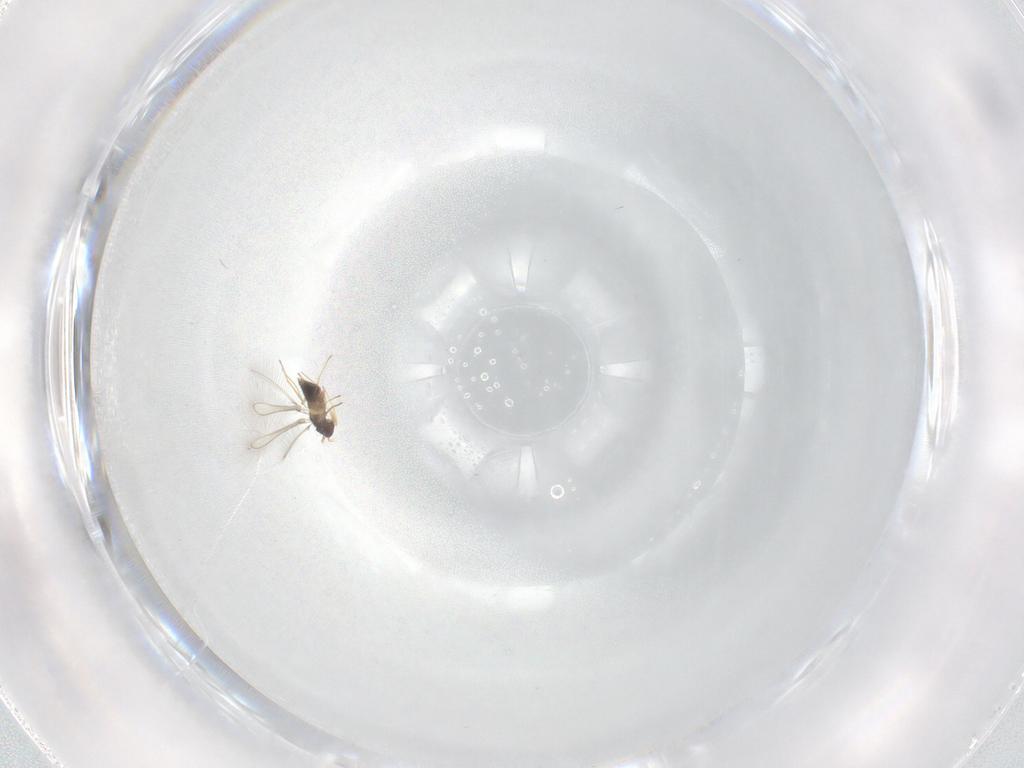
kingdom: Animalia
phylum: Arthropoda
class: Insecta
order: Hymenoptera
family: Mymaridae
